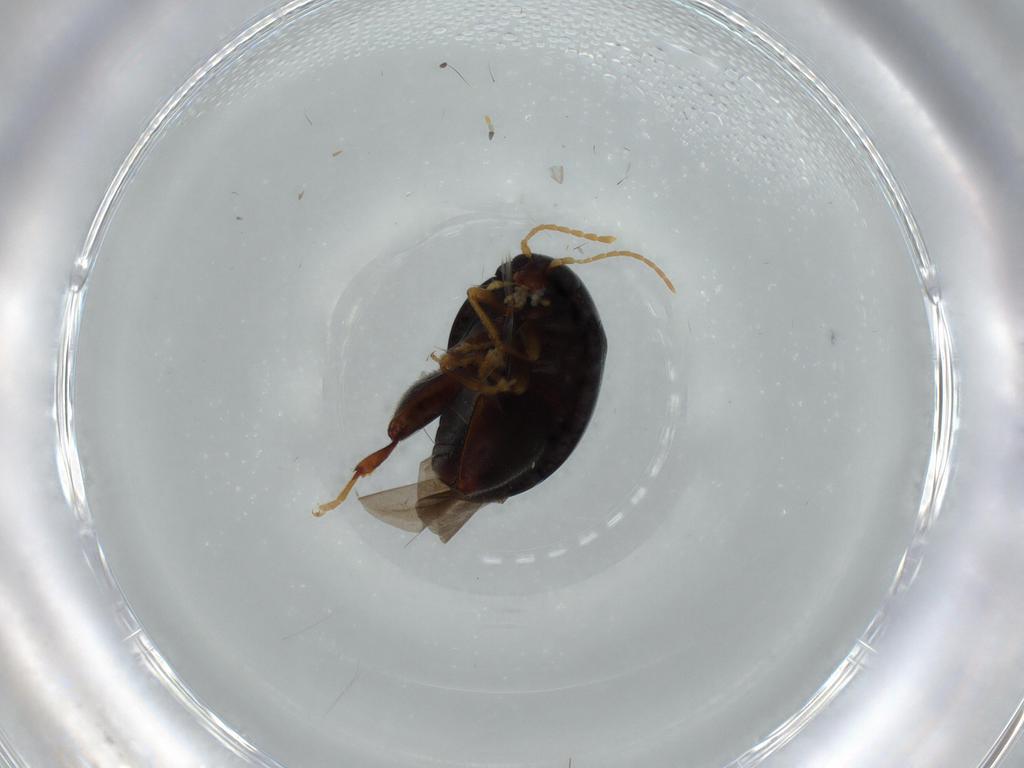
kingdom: Animalia
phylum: Arthropoda
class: Insecta
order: Coleoptera
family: Chrysomelidae
